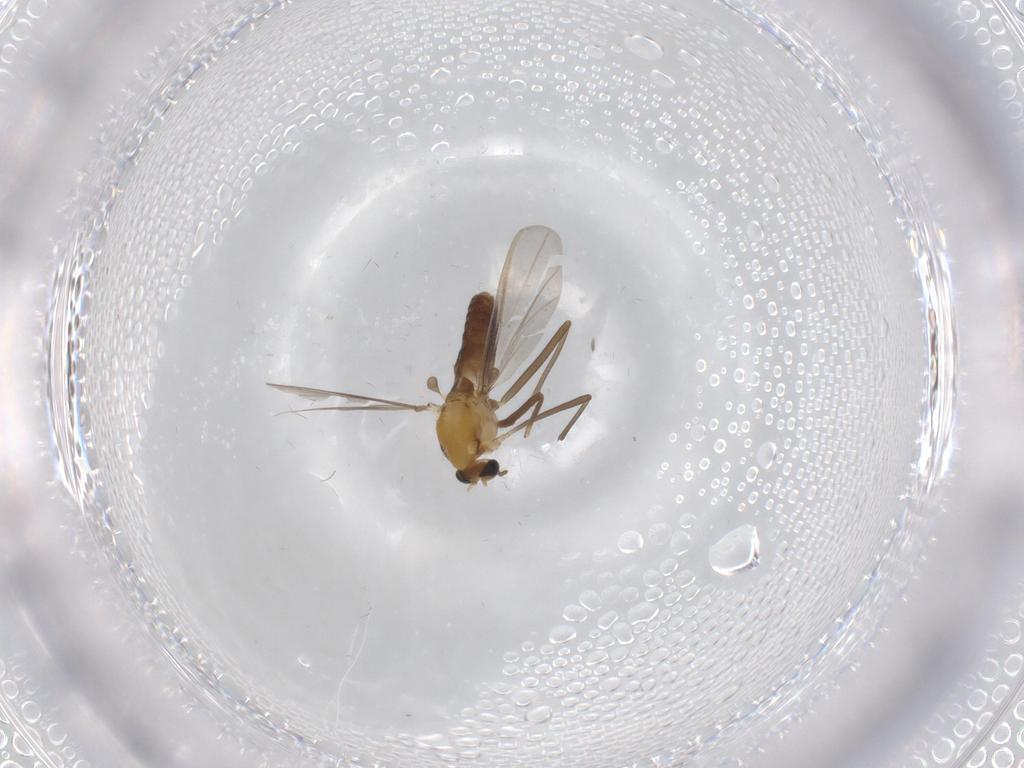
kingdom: Animalia
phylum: Arthropoda
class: Insecta
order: Diptera
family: Chironomidae
